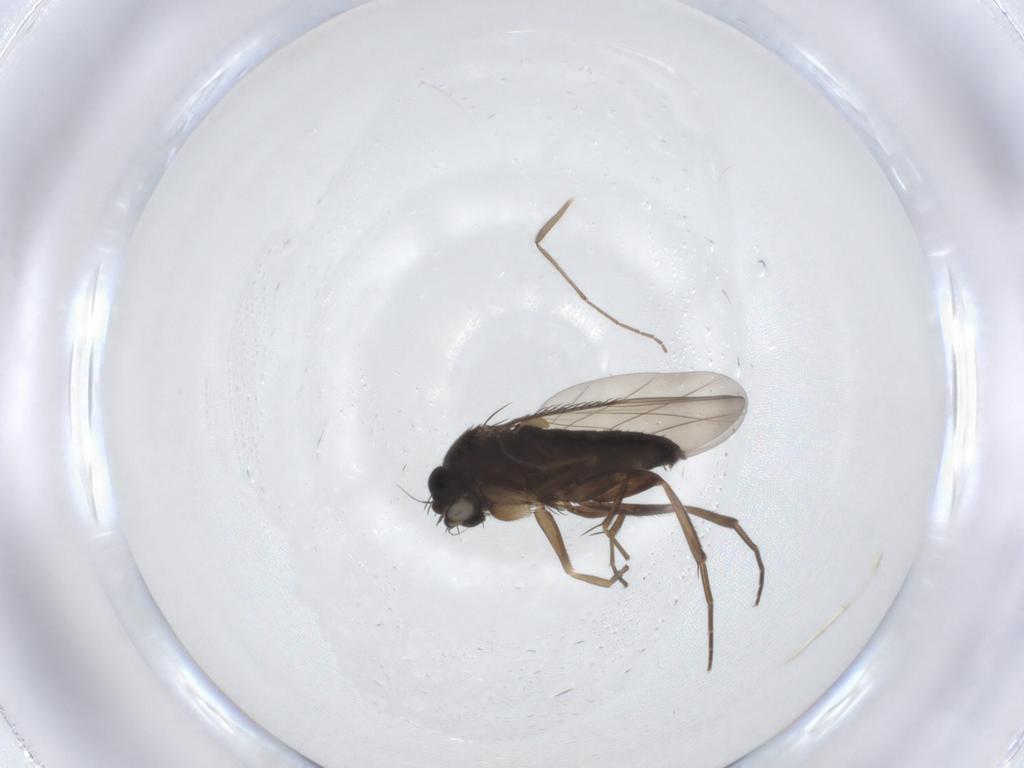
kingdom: Animalia
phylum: Arthropoda
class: Insecta
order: Diptera
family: Phoridae
